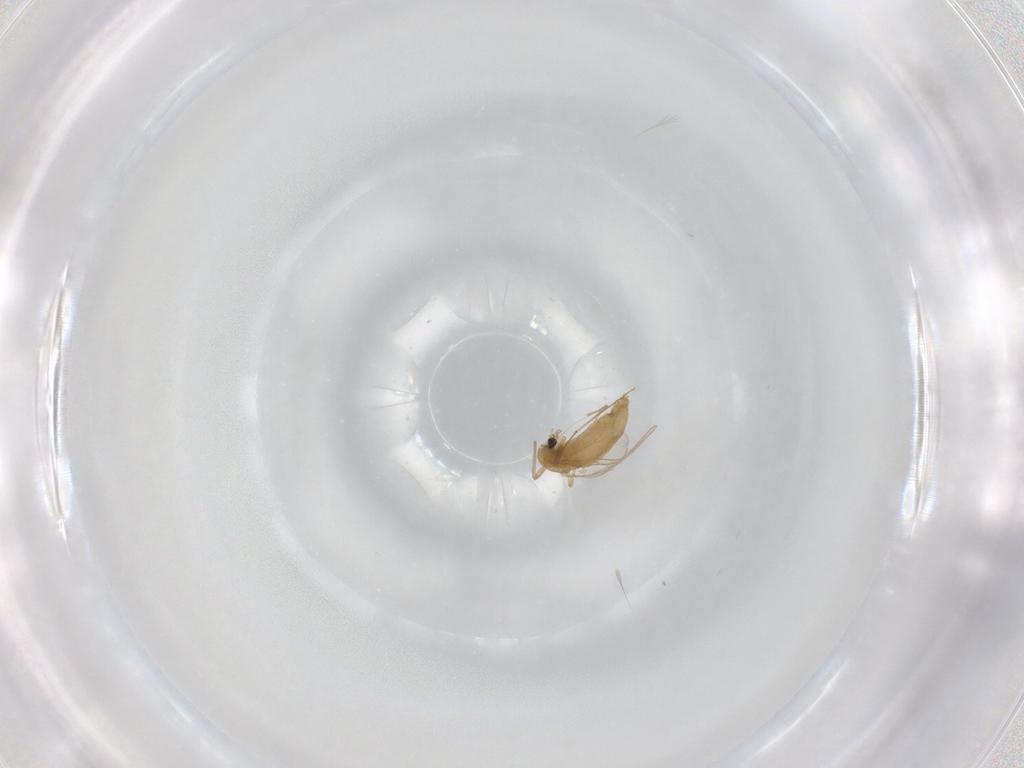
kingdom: Animalia
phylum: Arthropoda
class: Insecta
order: Diptera
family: Chironomidae
